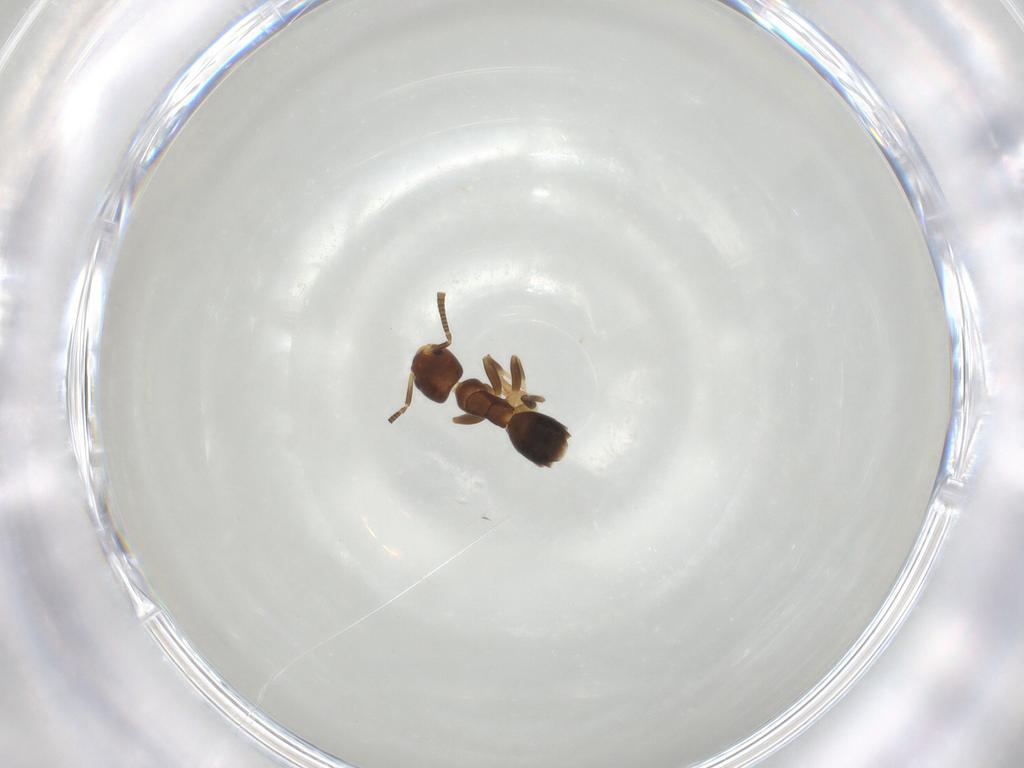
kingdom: Animalia
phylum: Arthropoda
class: Insecta
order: Hymenoptera
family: Formicidae
